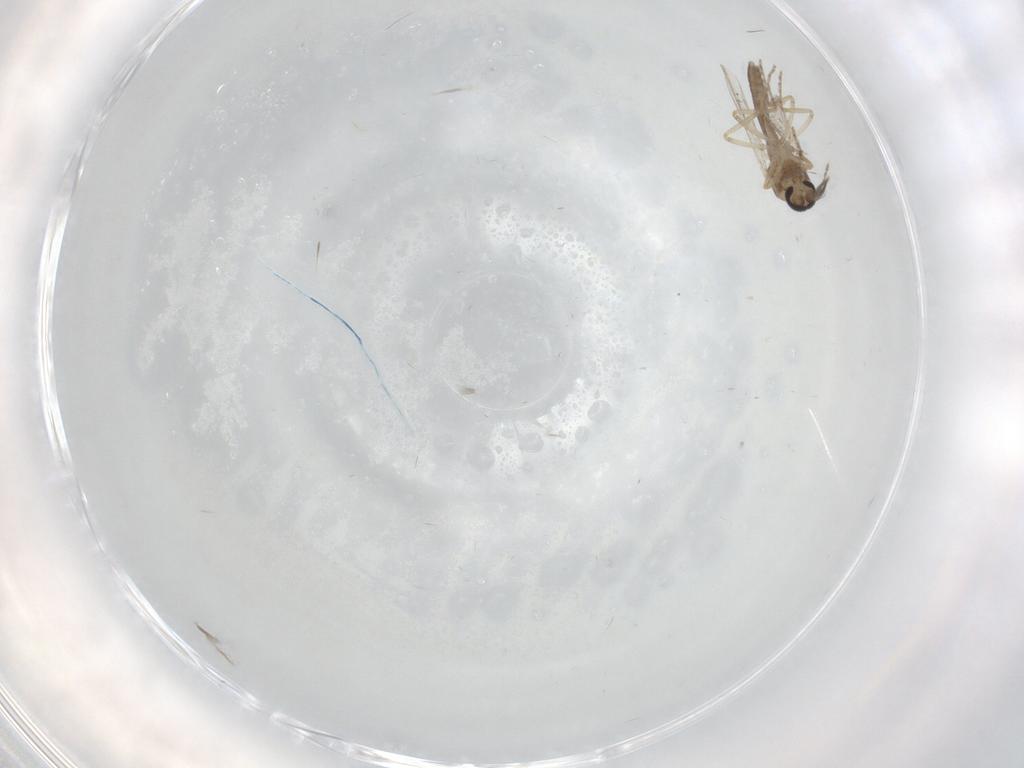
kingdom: Animalia
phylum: Arthropoda
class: Insecta
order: Diptera
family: Ceratopogonidae
